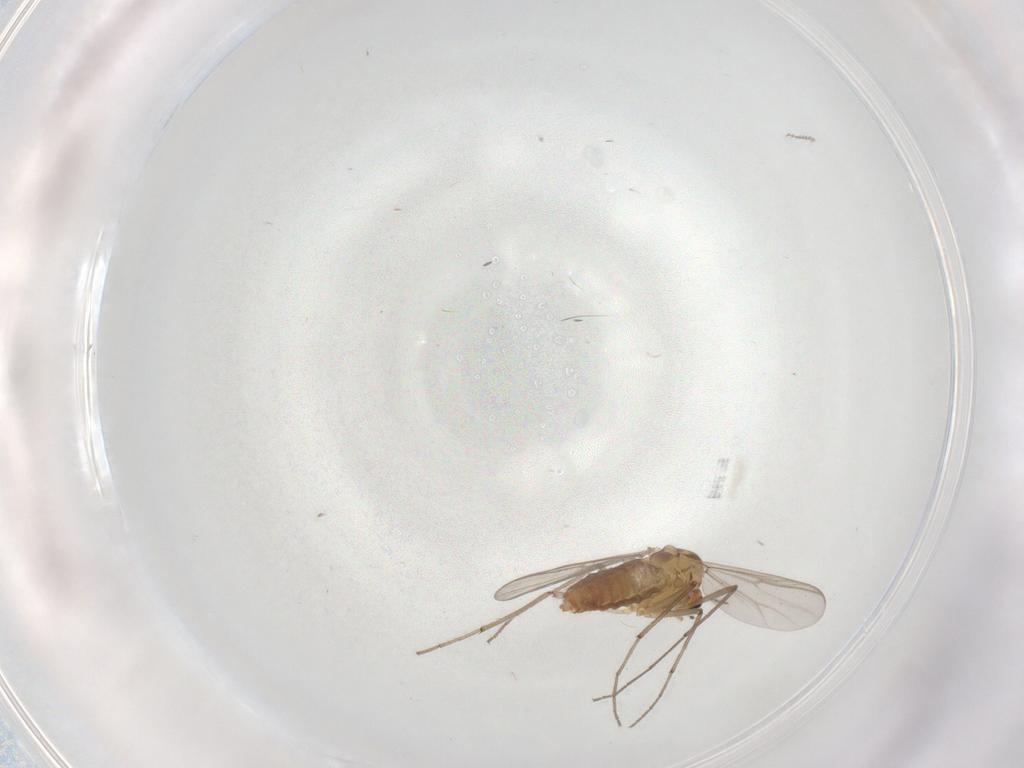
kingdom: Animalia
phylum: Arthropoda
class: Insecta
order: Diptera
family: Chironomidae
